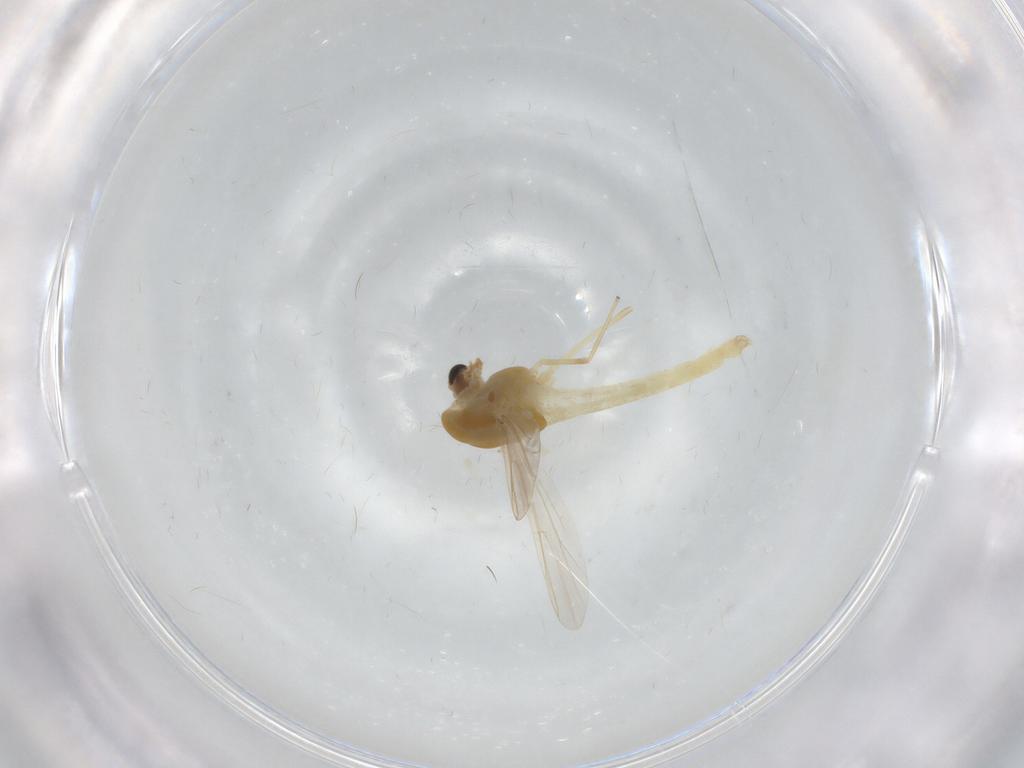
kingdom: Animalia
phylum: Arthropoda
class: Insecta
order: Diptera
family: Chironomidae
